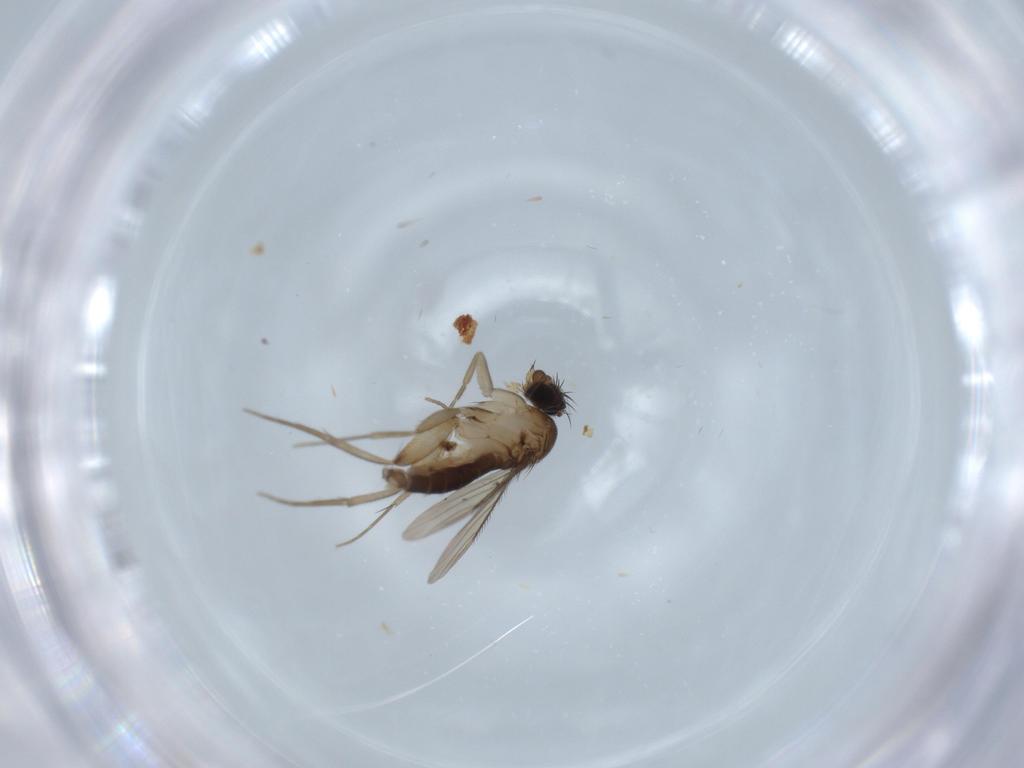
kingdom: Animalia
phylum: Arthropoda
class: Insecta
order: Diptera
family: Phoridae
